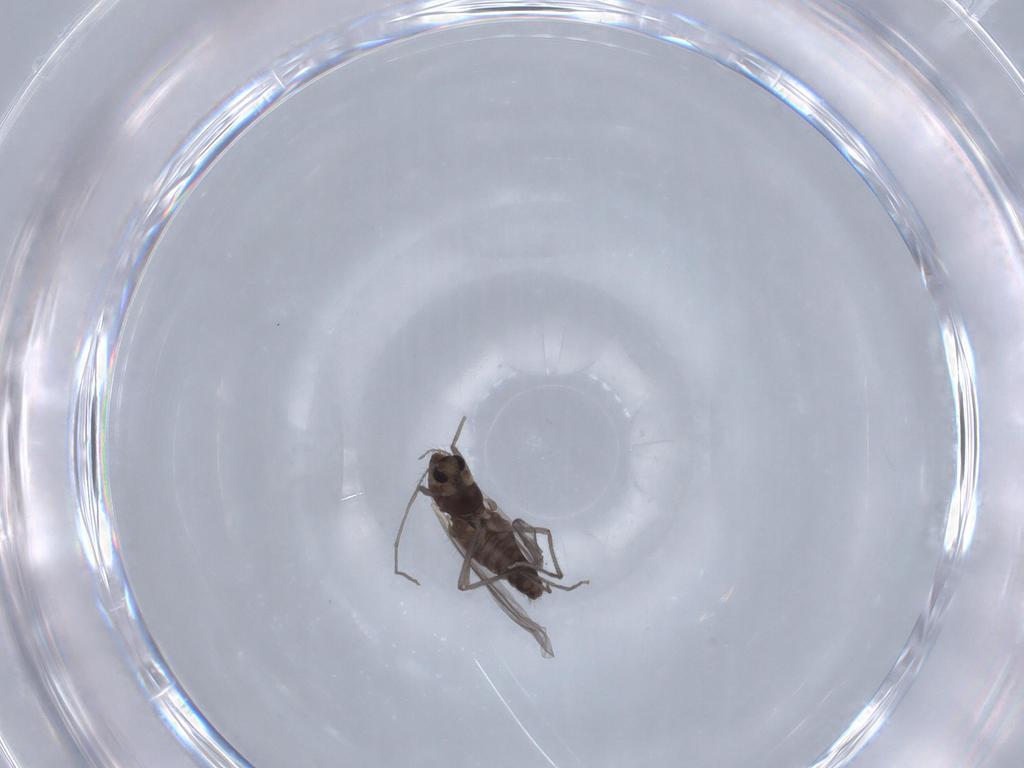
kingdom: Animalia
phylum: Arthropoda
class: Insecta
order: Diptera
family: Chironomidae
